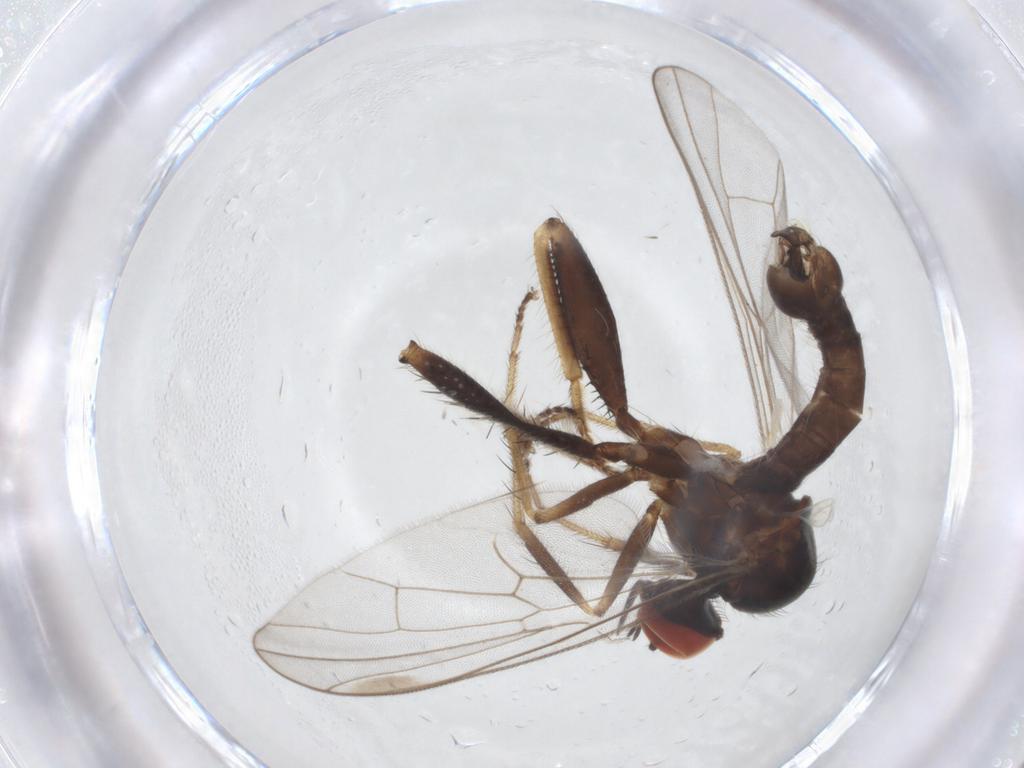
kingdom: Animalia
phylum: Arthropoda
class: Insecta
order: Diptera
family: Hybotidae
